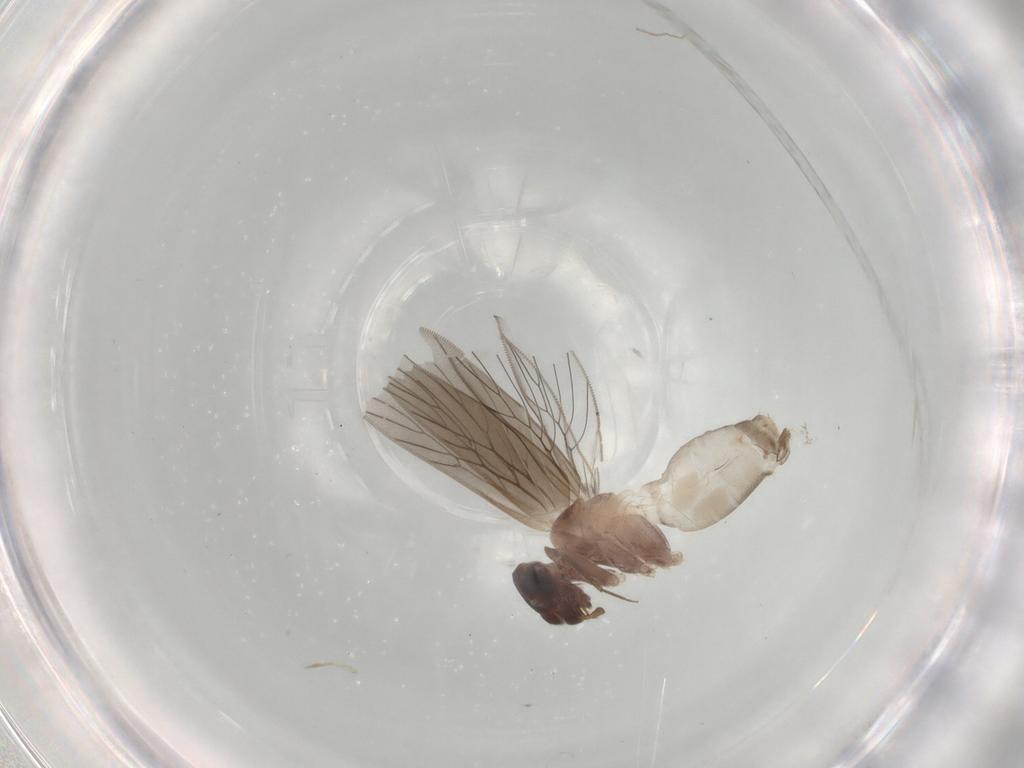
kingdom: Animalia
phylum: Arthropoda
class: Insecta
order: Psocodea
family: Lepidopsocidae
